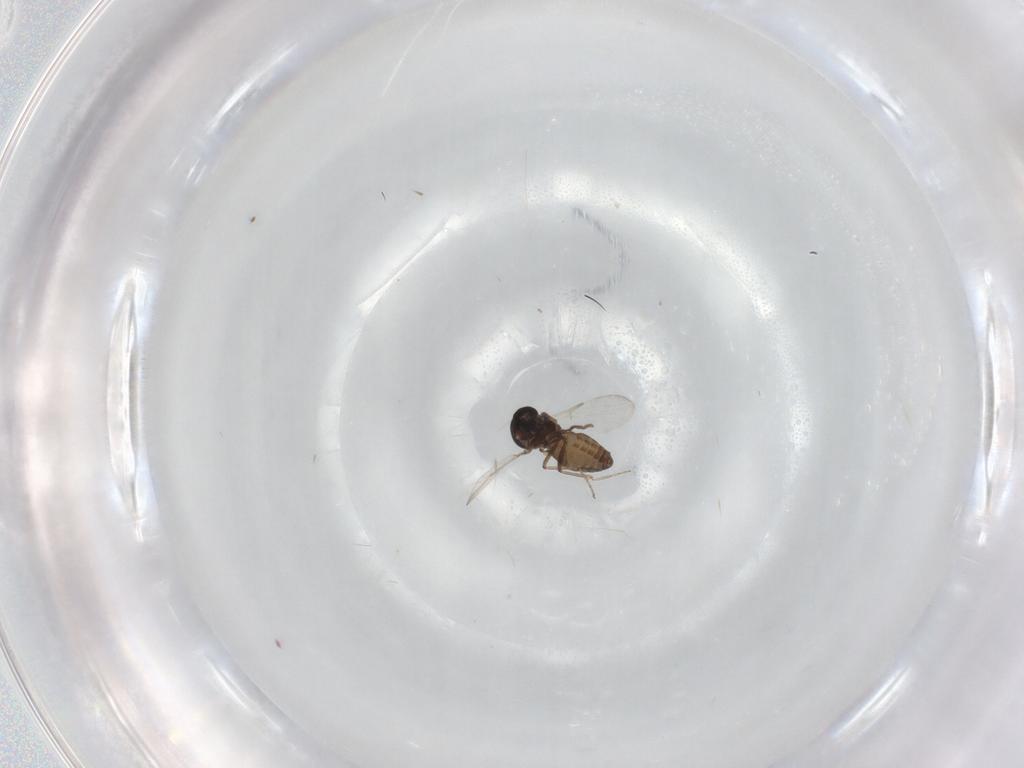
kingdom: Animalia
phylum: Arthropoda
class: Insecta
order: Diptera
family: Ceratopogonidae
